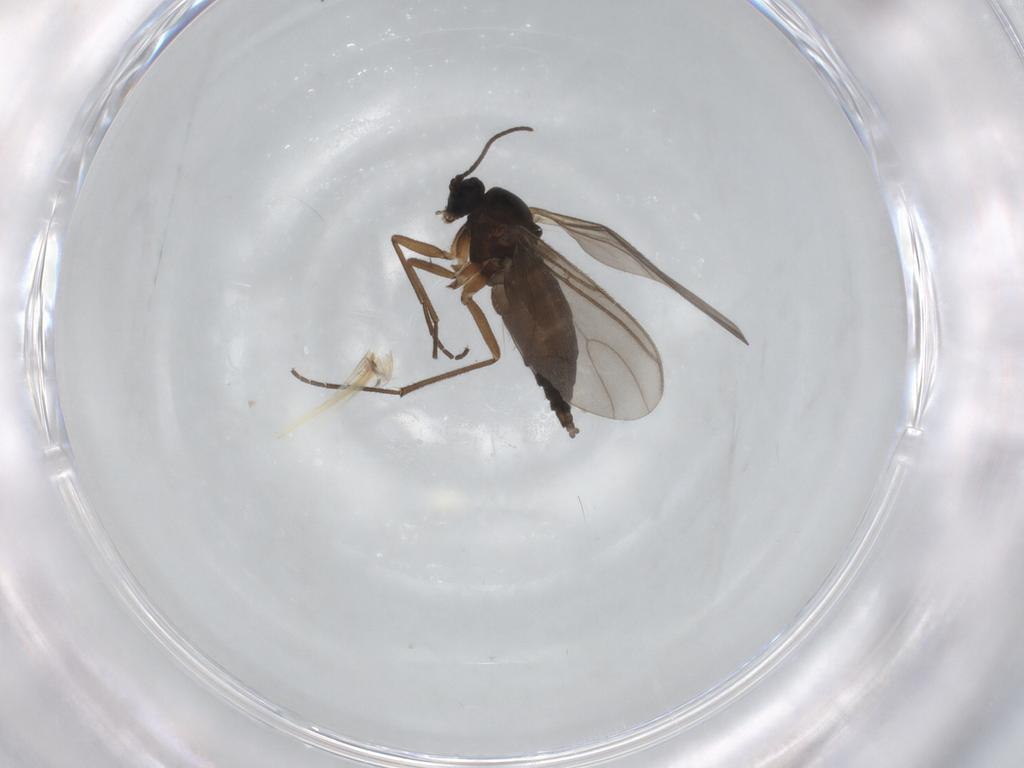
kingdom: Animalia
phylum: Arthropoda
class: Insecta
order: Diptera
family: Sciaridae
